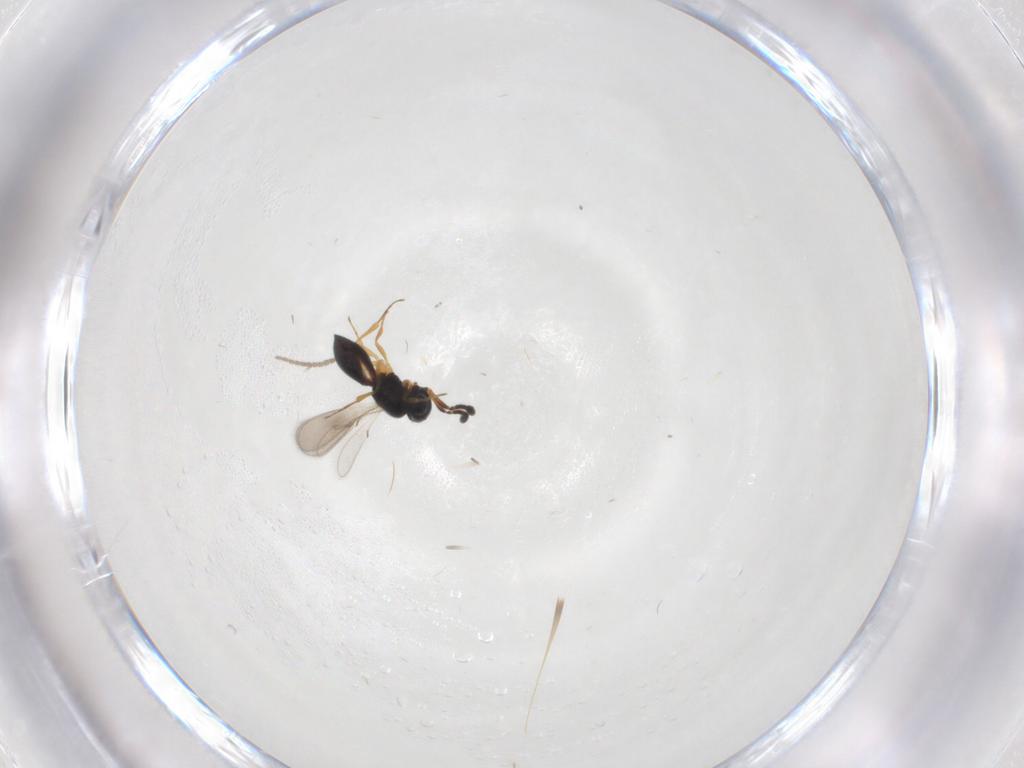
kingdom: Animalia
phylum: Arthropoda
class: Insecta
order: Hymenoptera
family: Scelionidae
